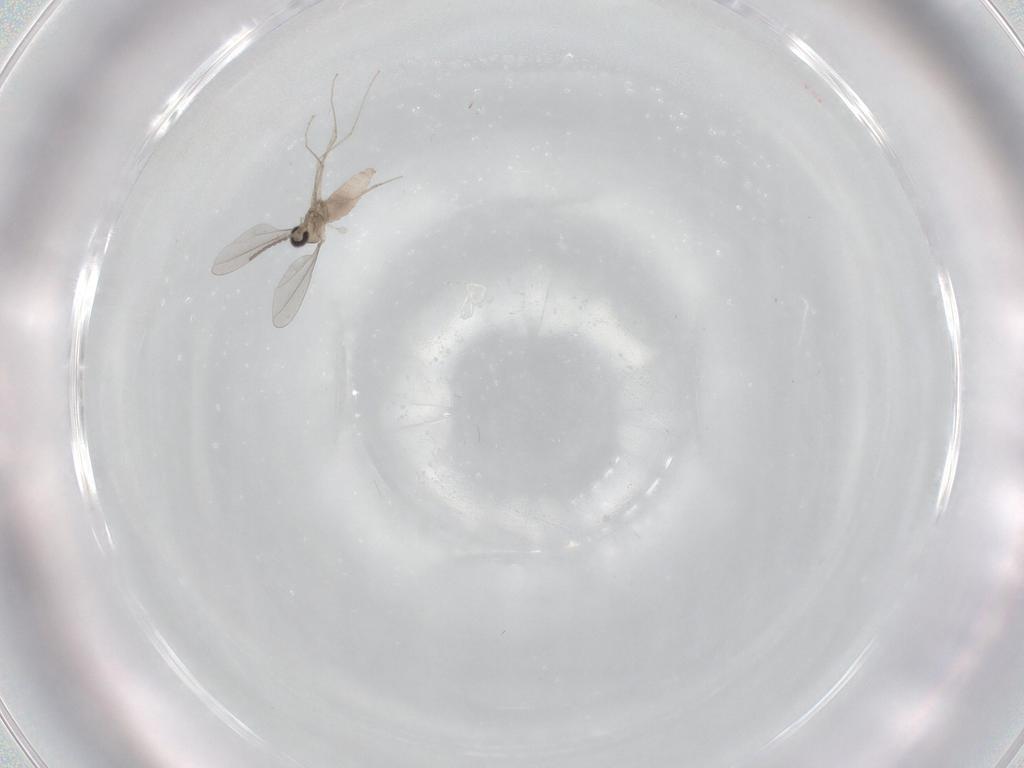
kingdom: Animalia
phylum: Arthropoda
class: Insecta
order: Diptera
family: Cecidomyiidae
